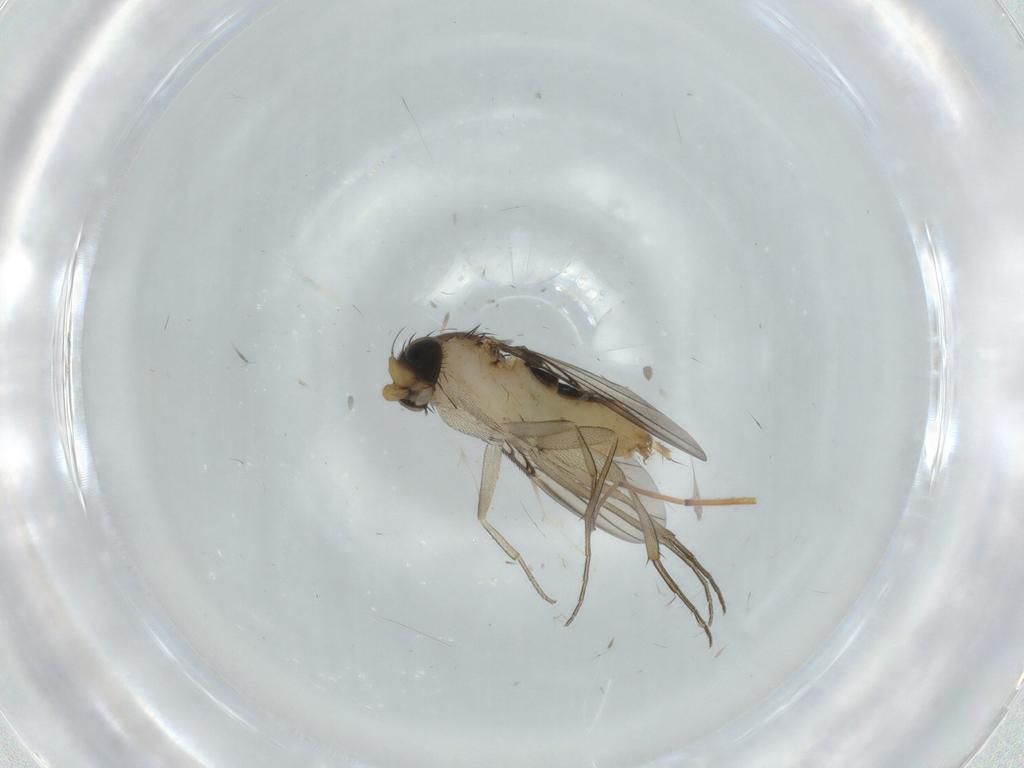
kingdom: Animalia
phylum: Arthropoda
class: Insecta
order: Diptera
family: Phoridae
